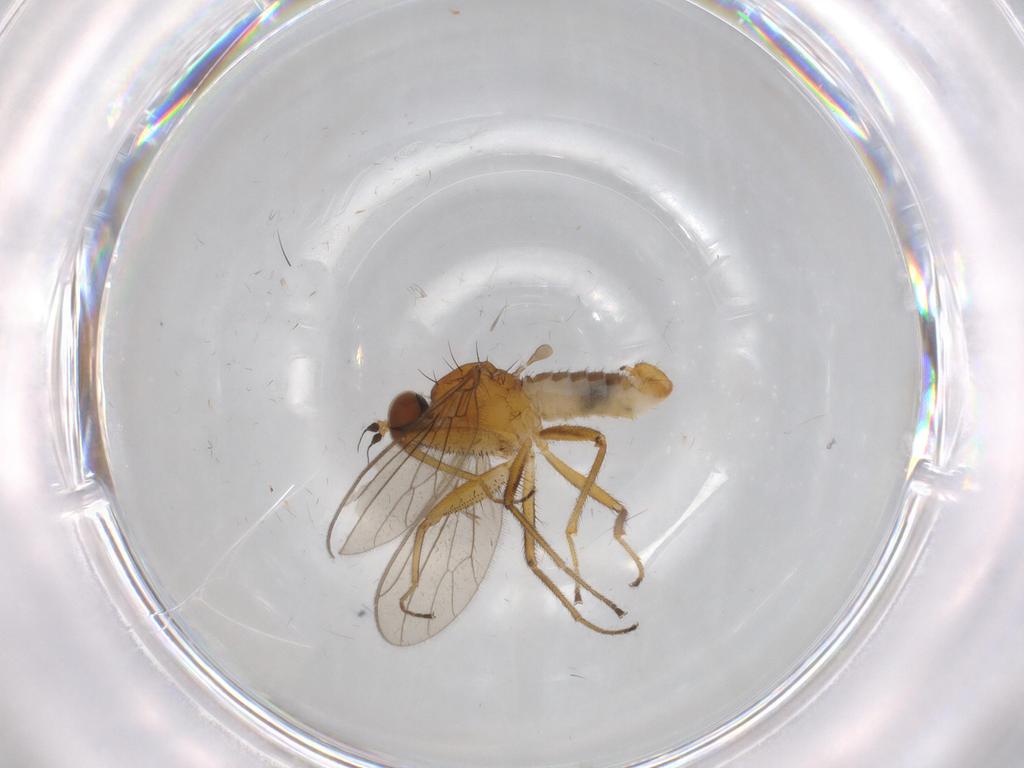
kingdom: Animalia
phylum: Arthropoda
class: Insecta
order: Diptera
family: Empididae
